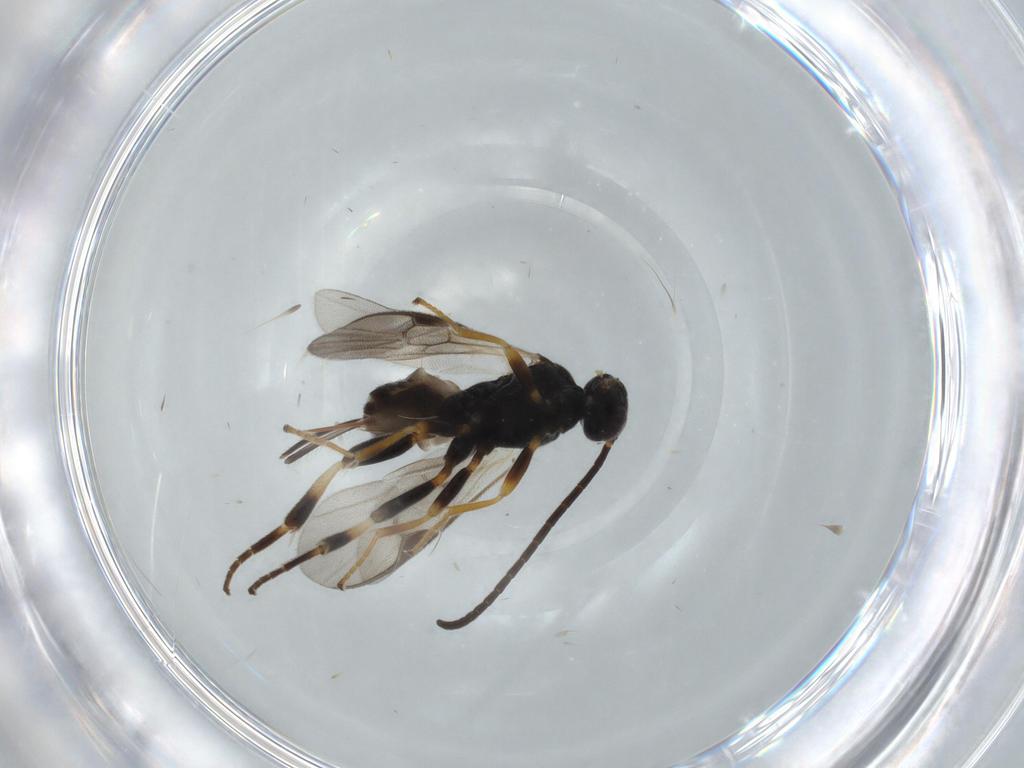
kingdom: Animalia
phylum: Arthropoda
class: Insecta
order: Hymenoptera
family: Braconidae
